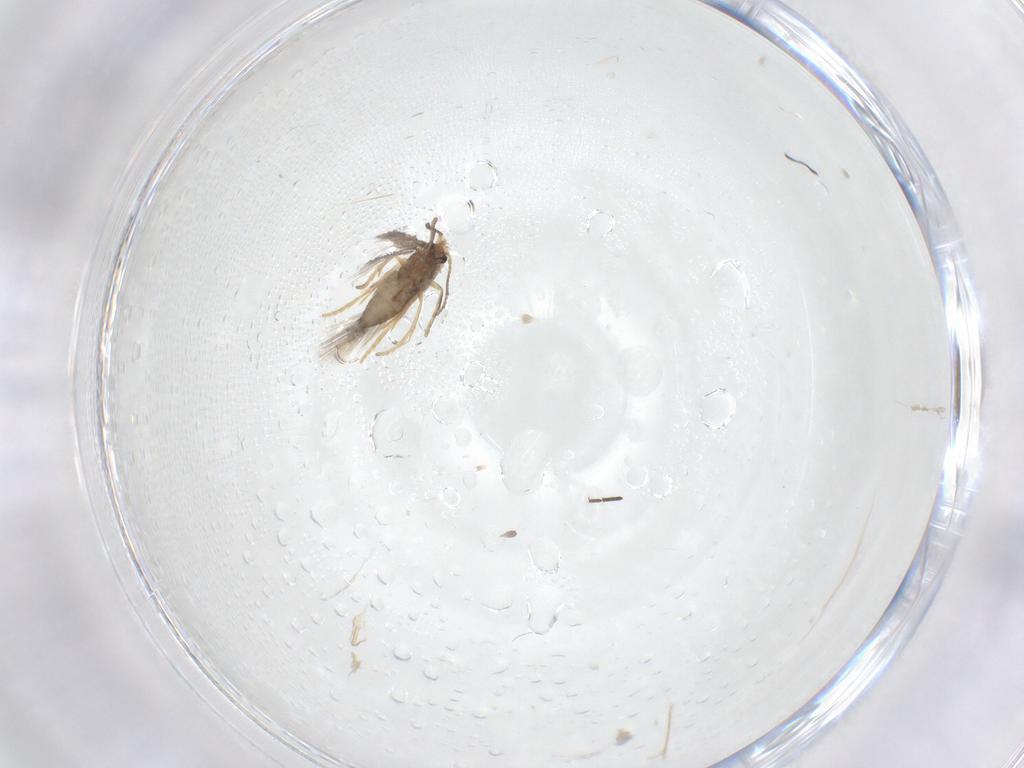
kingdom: Animalia
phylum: Arthropoda
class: Insecta
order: Lepidoptera
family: Nepticulidae
